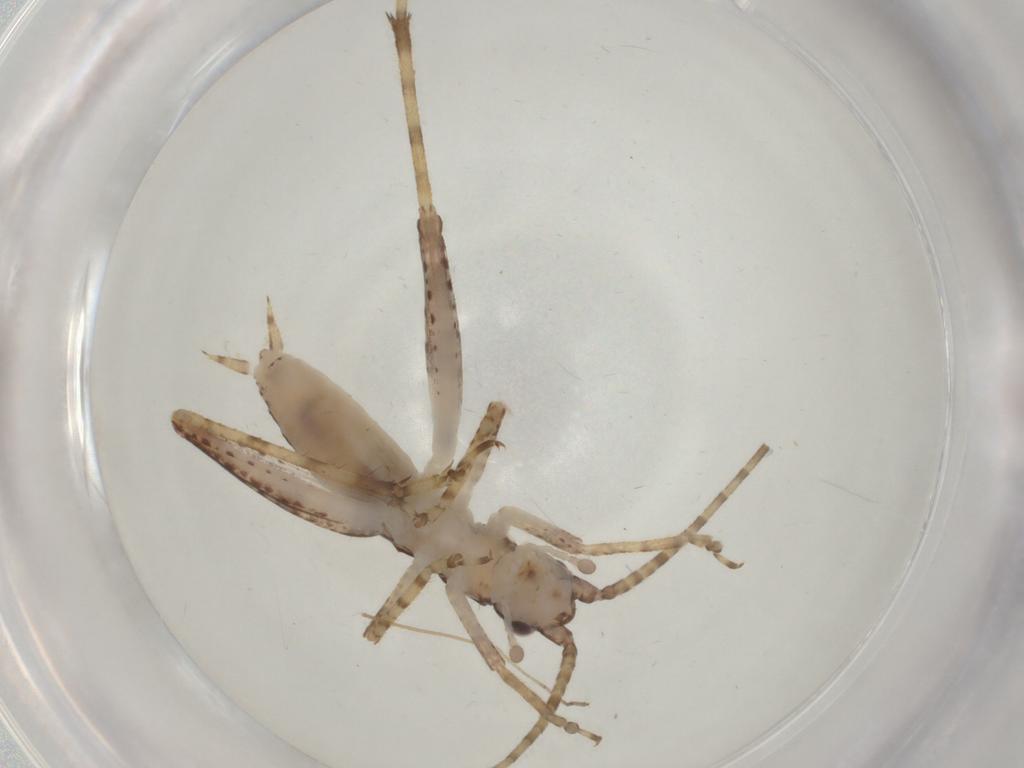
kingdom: Animalia
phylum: Arthropoda
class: Insecta
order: Orthoptera
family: Gryllidae
